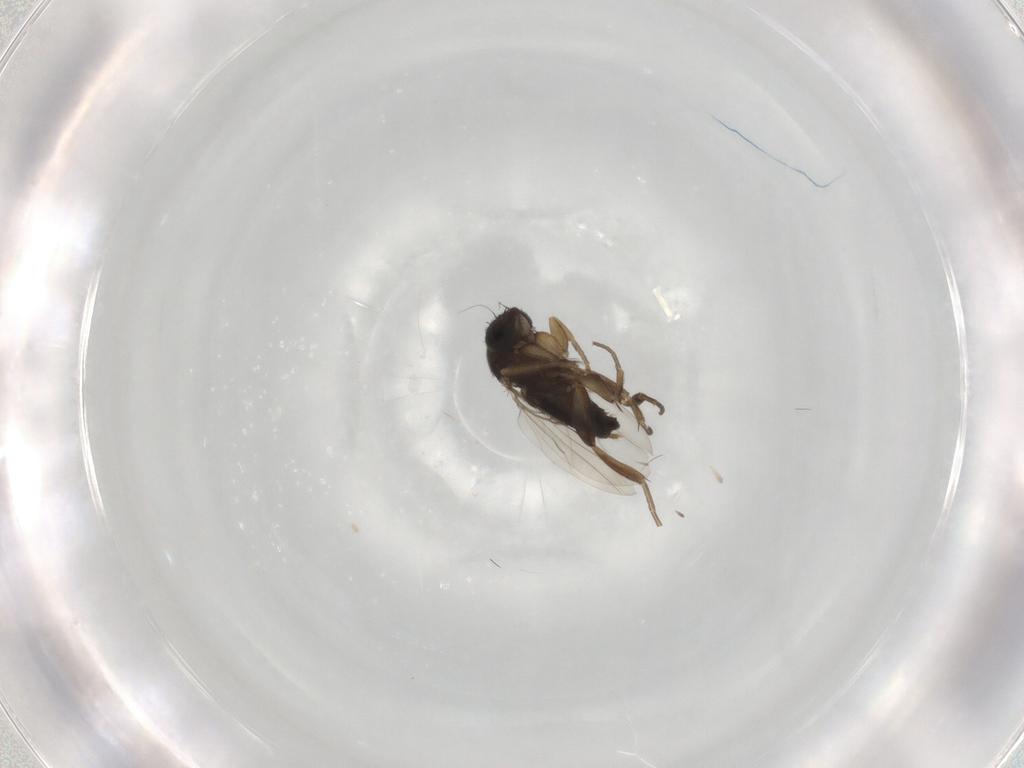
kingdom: Animalia
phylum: Arthropoda
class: Insecta
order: Diptera
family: Phoridae
